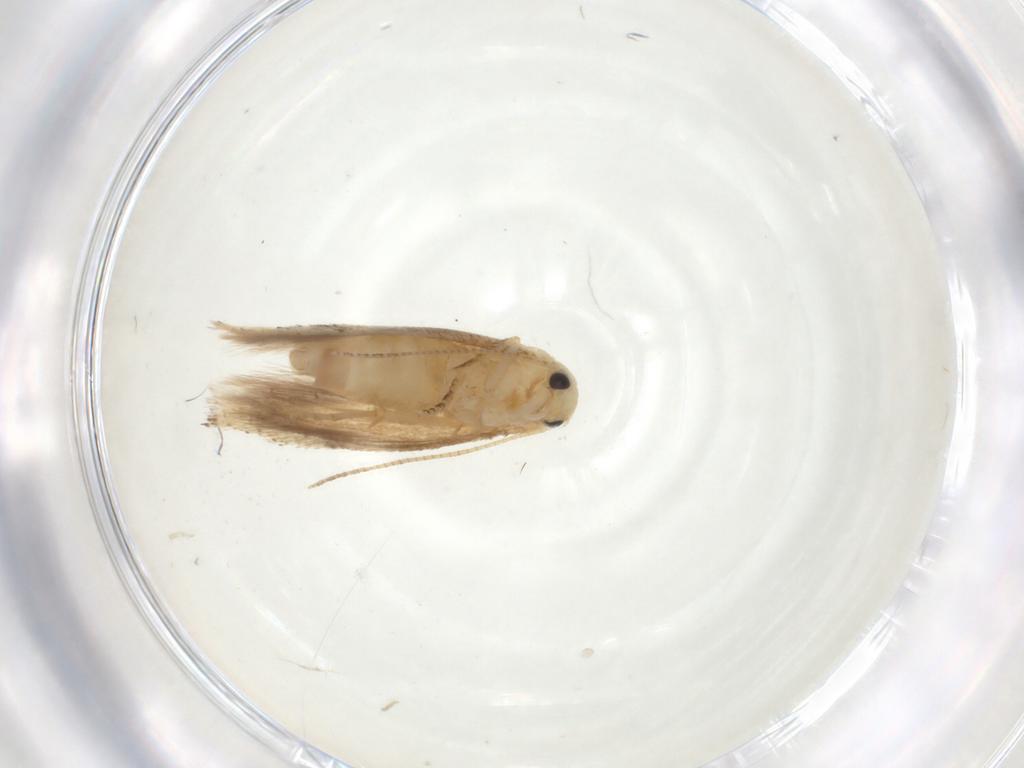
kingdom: Animalia
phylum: Arthropoda
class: Insecta
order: Lepidoptera
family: Bucculatricidae
